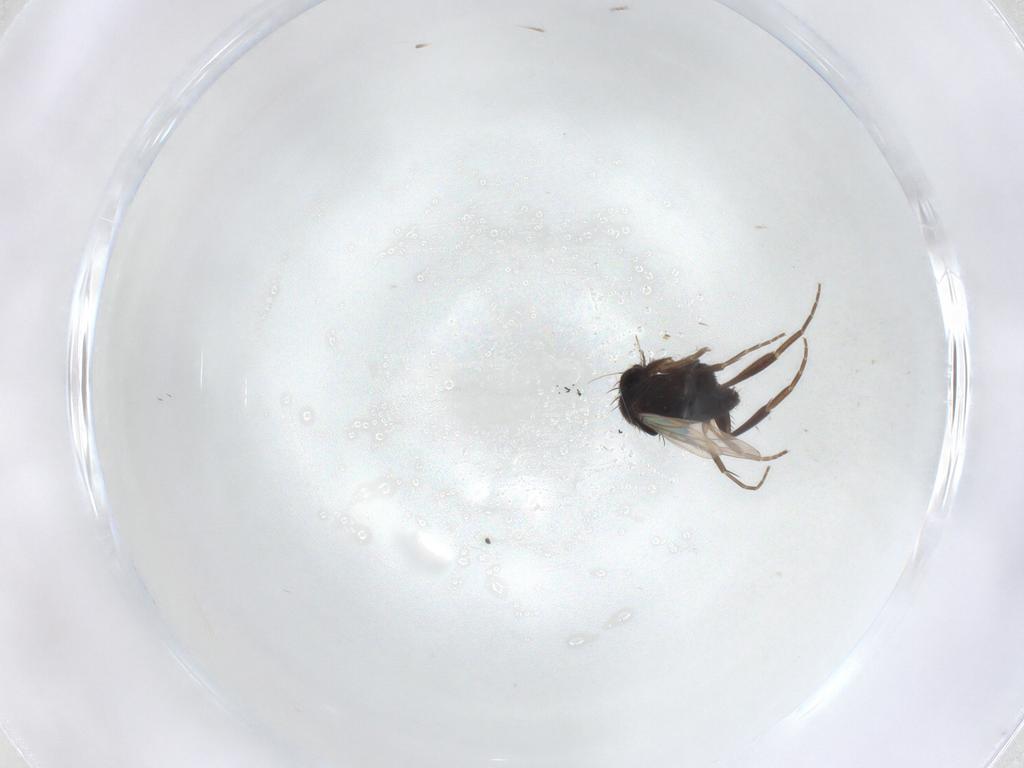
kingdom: Animalia
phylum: Arthropoda
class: Insecta
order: Diptera
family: Phoridae
